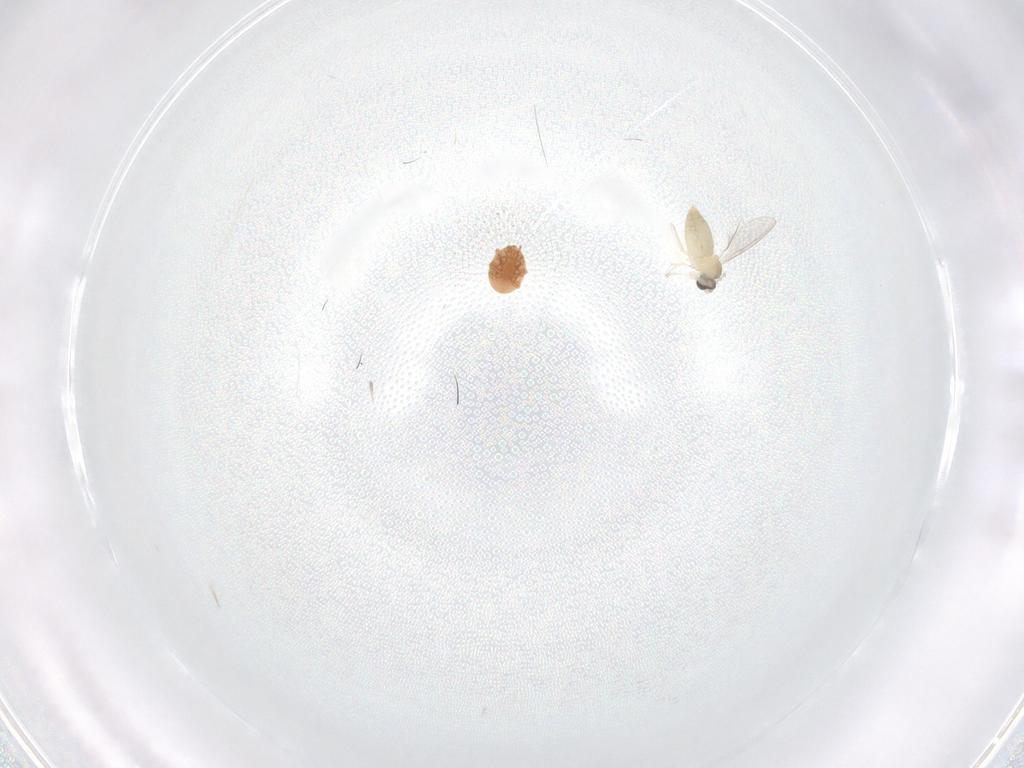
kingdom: Animalia
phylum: Arthropoda
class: Insecta
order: Diptera
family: Cecidomyiidae
